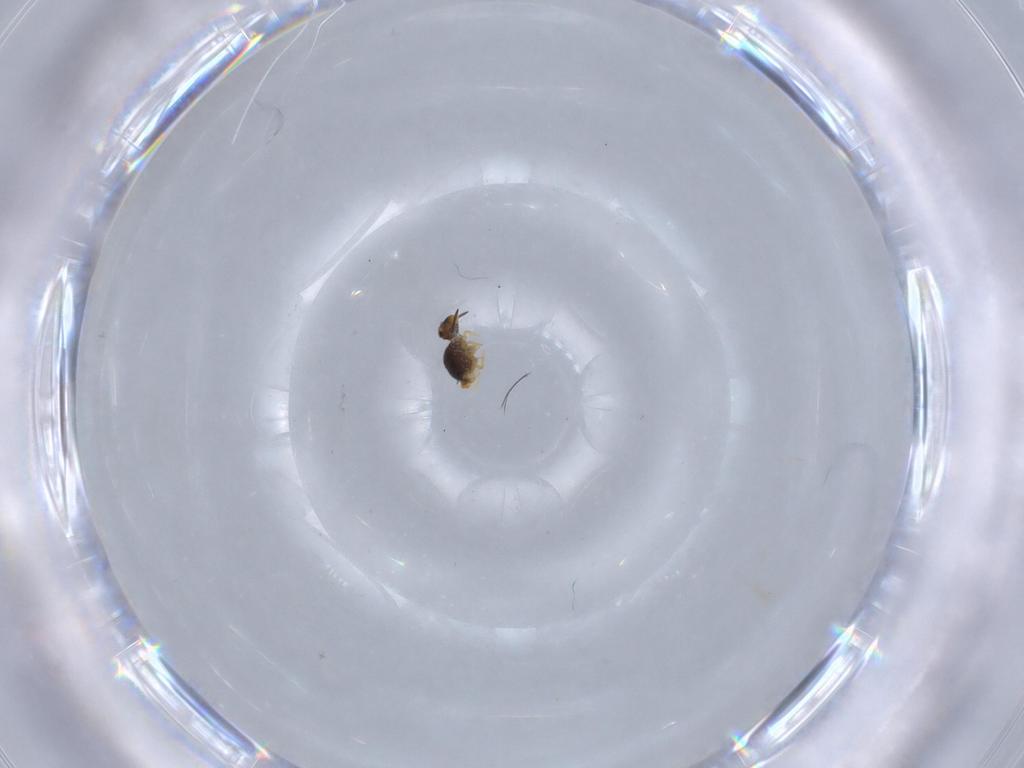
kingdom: Animalia
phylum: Arthropoda
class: Collembola
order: Symphypleona
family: Katiannidae
